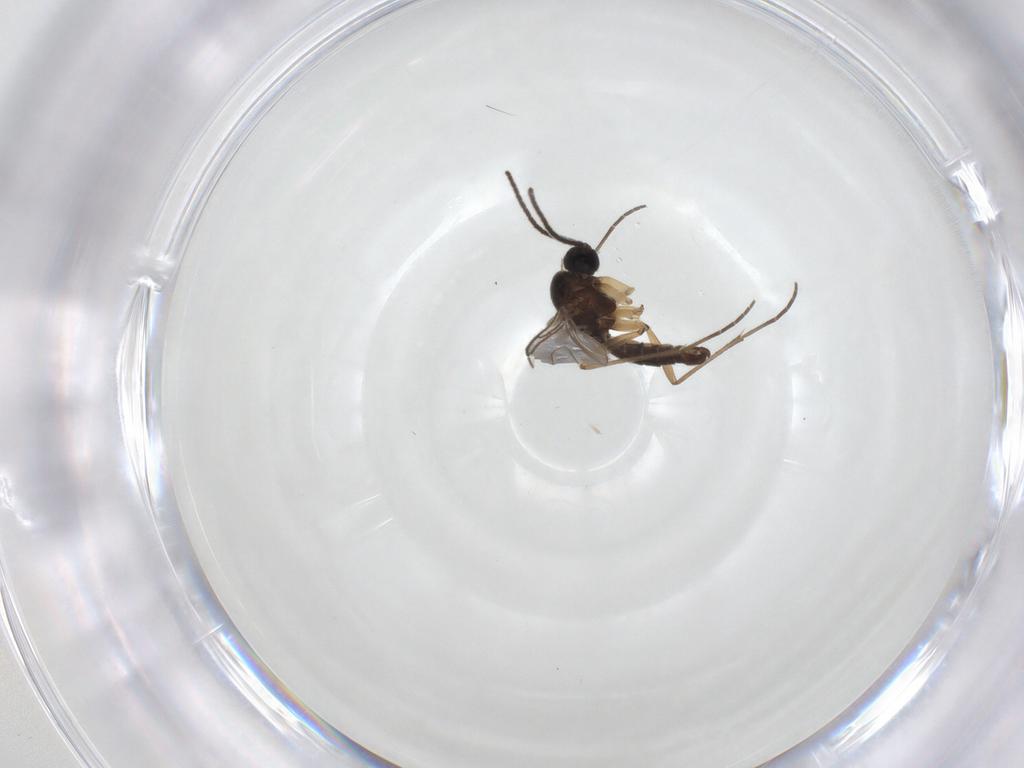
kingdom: Animalia
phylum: Arthropoda
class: Insecta
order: Diptera
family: Sciaridae
